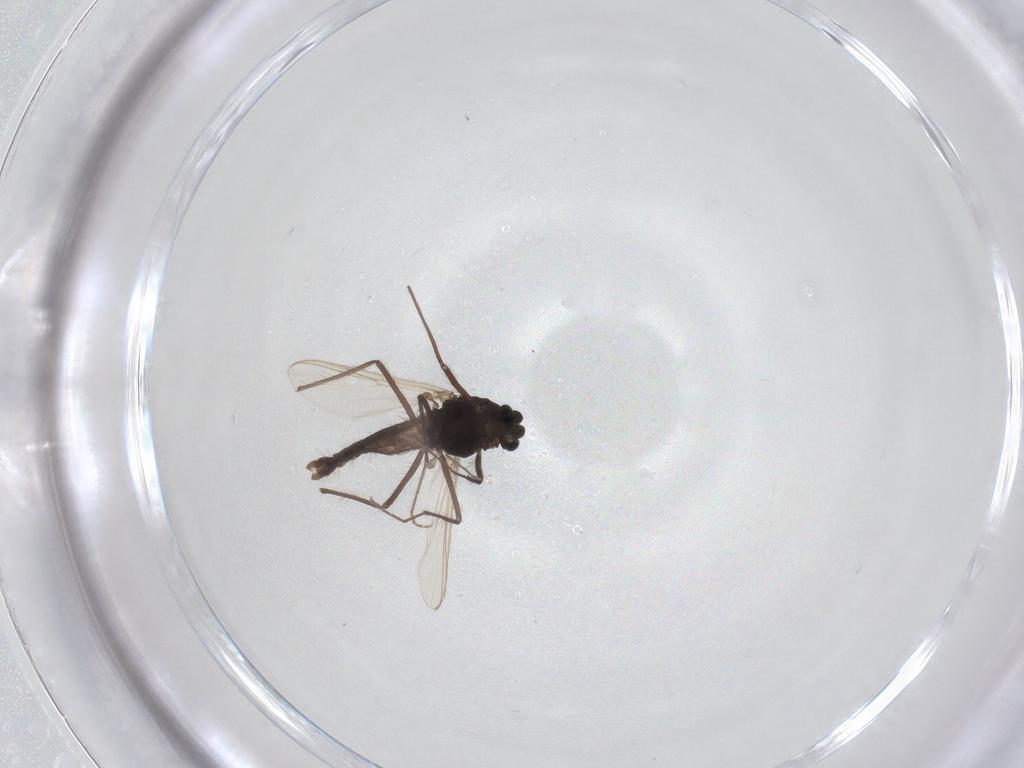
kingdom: Animalia
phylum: Arthropoda
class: Insecta
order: Diptera
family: Chironomidae
